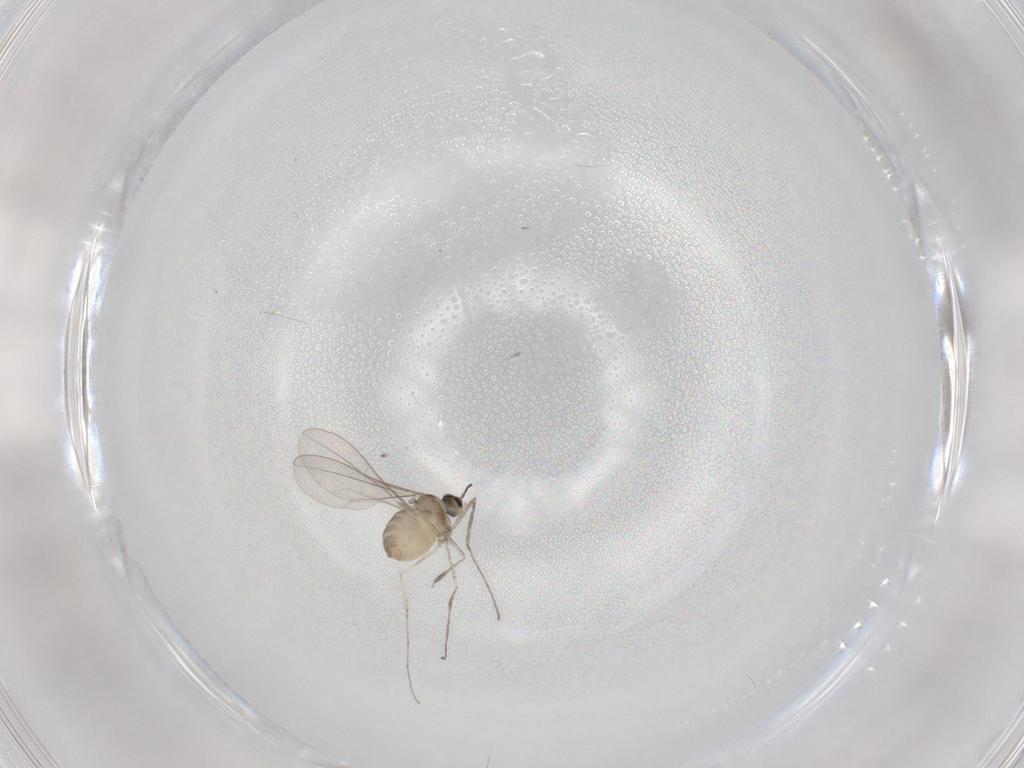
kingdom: Animalia
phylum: Arthropoda
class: Insecta
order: Diptera
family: Cecidomyiidae
